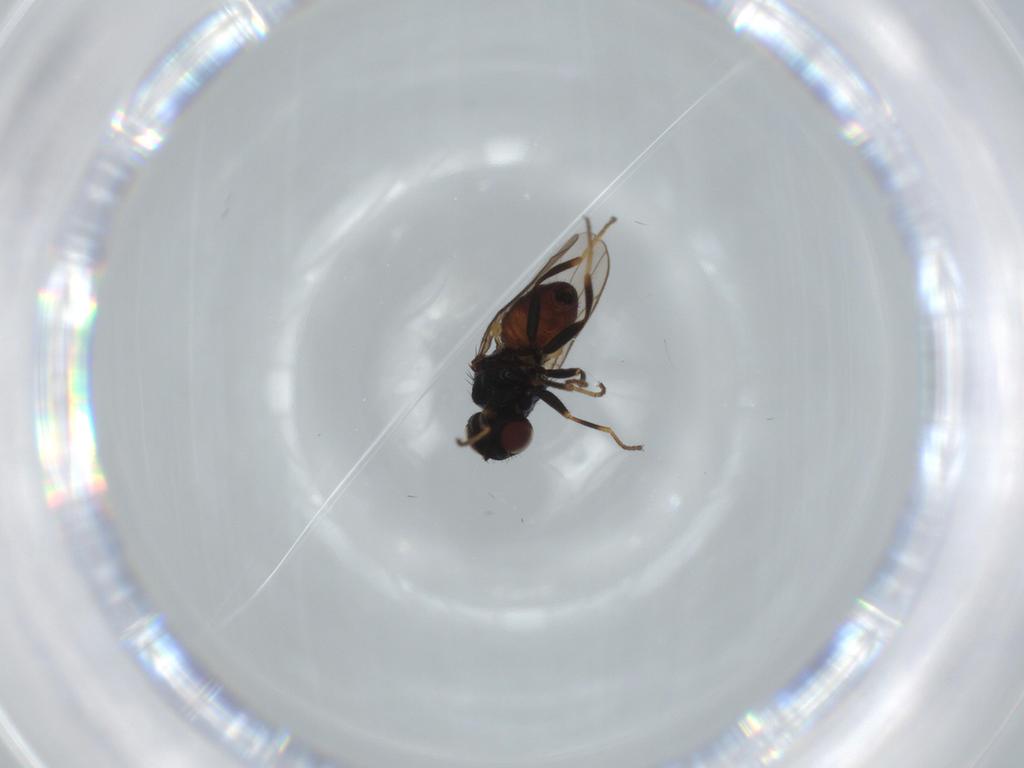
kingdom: Animalia
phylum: Arthropoda
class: Insecta
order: Diptera
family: Chloropidae
